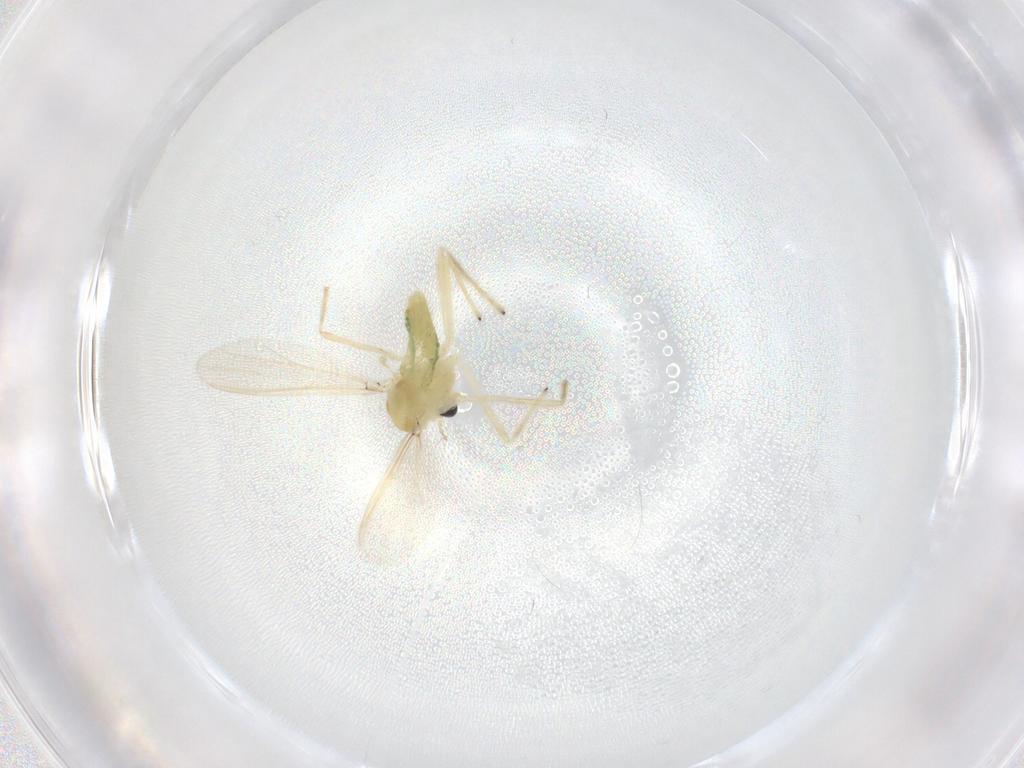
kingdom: Animalia
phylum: Arthropoda
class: Insecta
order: Diptera
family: Chironomidae
